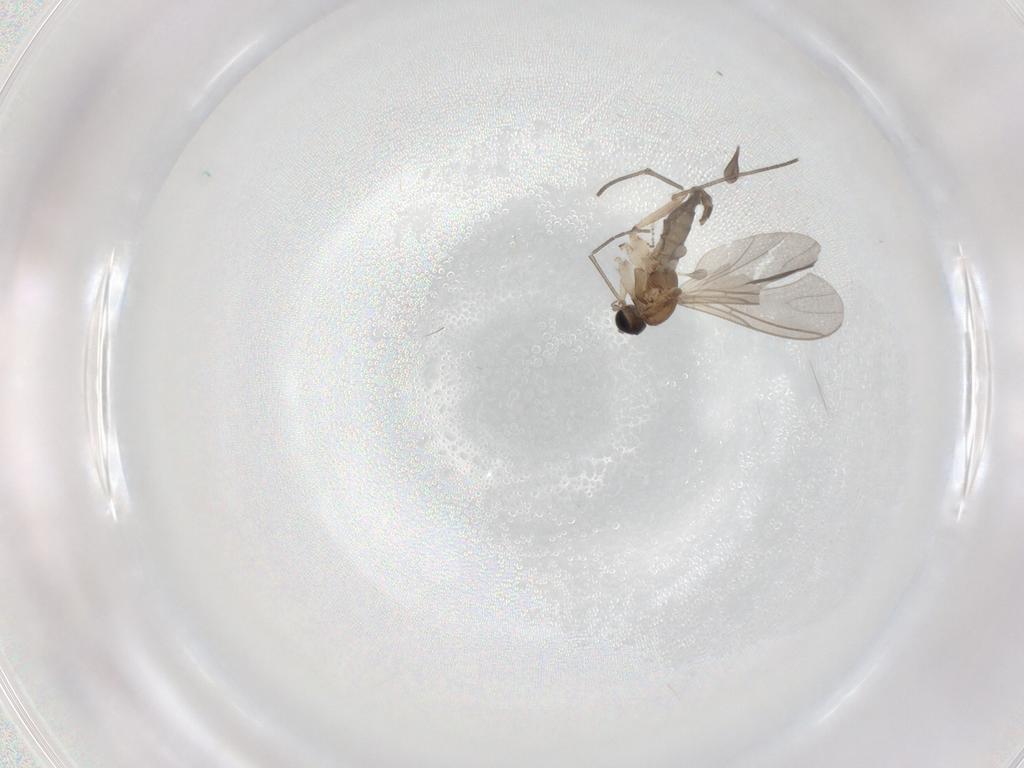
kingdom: Animalia
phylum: Arthropoda
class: Insecta
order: Diptera
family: Sciaridae
